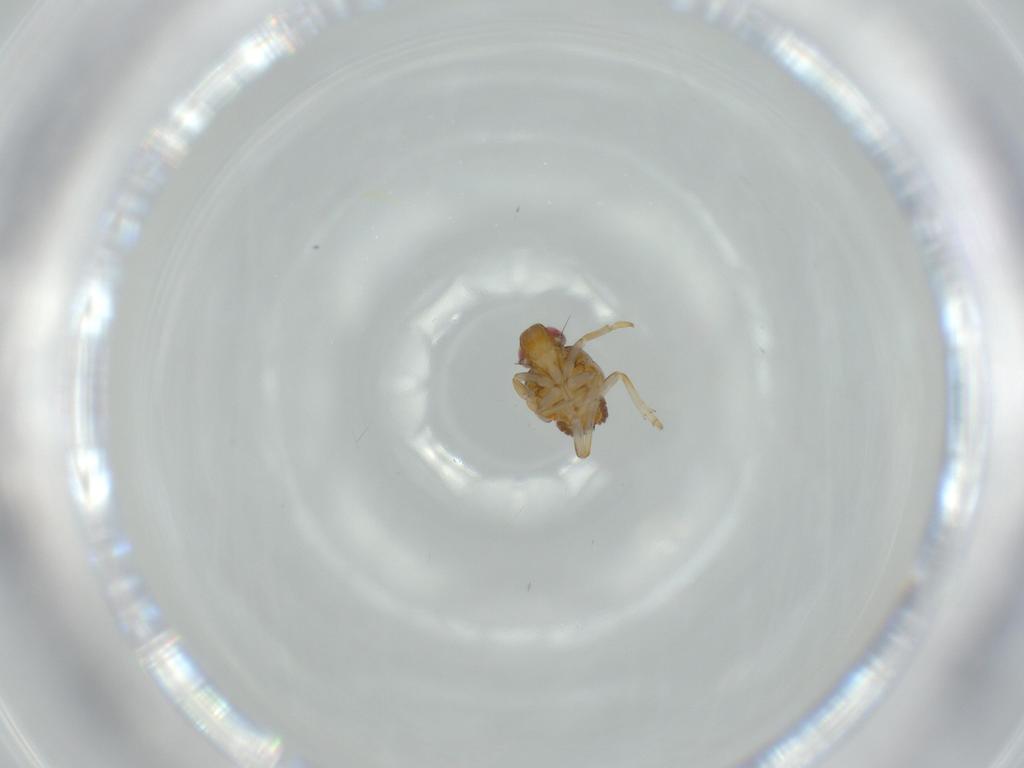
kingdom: Animalia
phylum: Arthropoda
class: Insecta
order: Hemiptera
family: Issidae
